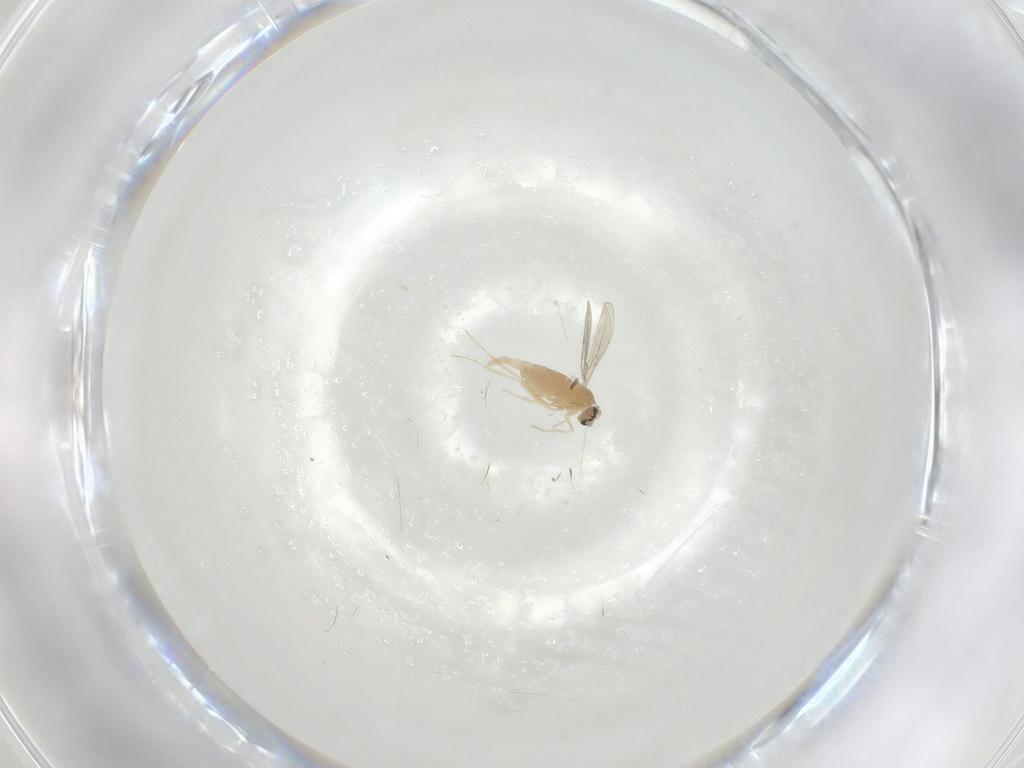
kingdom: Animalia
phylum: Arthropoda
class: Insecta
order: Diptera
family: Cecidomyiidae
